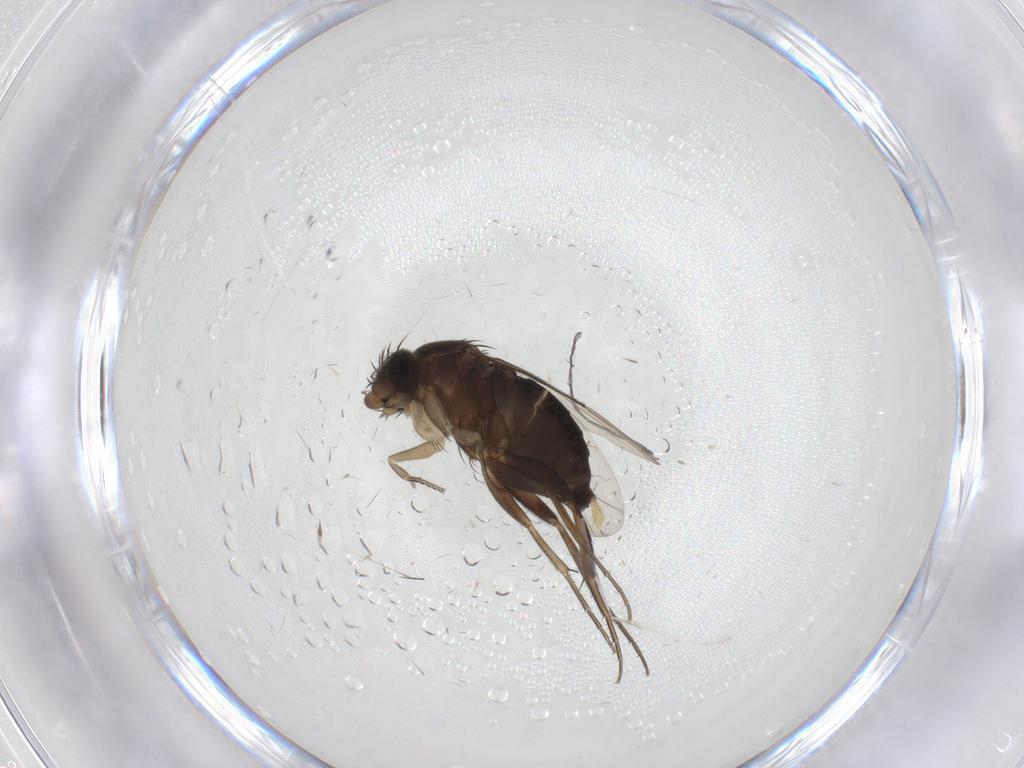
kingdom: Animalia
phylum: Arthropoda
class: Insecta
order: Diptera
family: Phoridae
